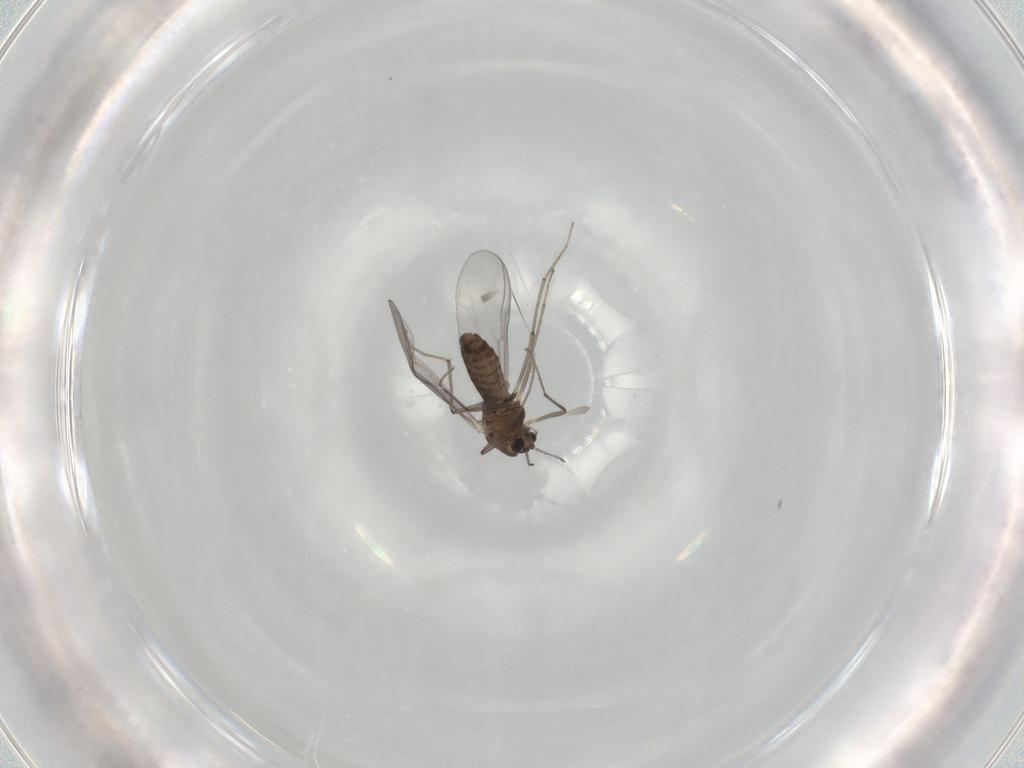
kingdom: Animalia
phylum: Arthropoda
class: Insecta
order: Diptera
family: Chironomidae
